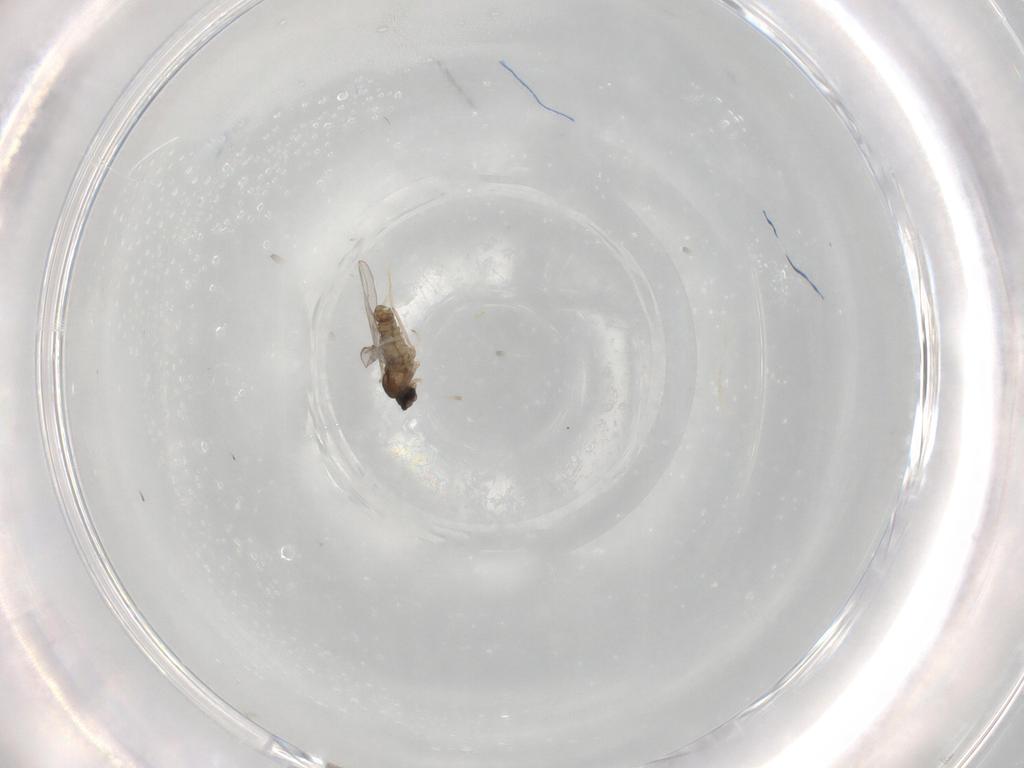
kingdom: Animalia
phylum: Arthropoda
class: Insecta
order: Diptera
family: Cecidomyiidae
